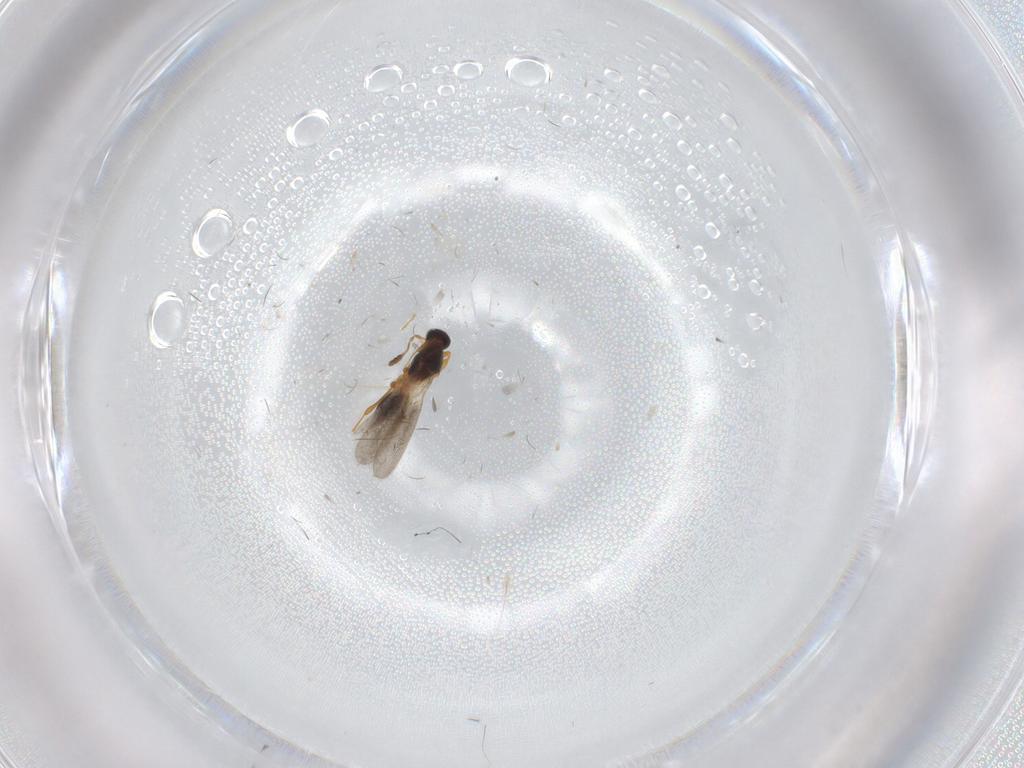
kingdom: Animalia
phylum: Arthropoda
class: Insecta
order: Hymenoptera
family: Platygastridae
